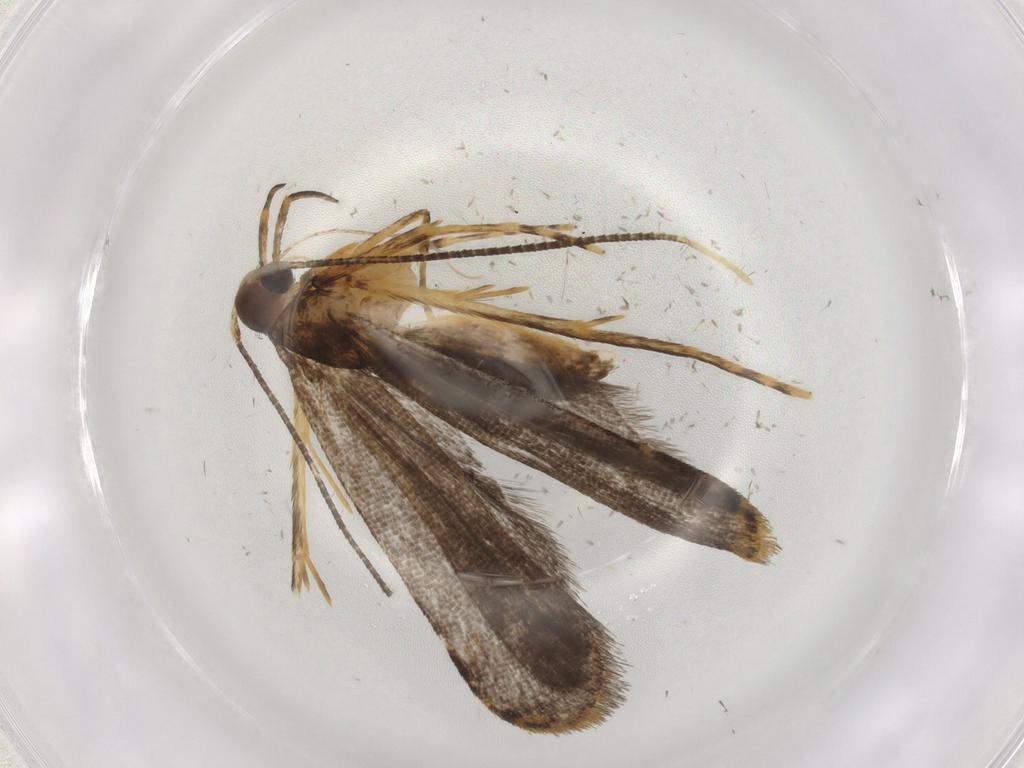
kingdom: Animalia
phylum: Arthropoda
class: Insecta
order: Lepidoptera
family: Cosmopterigidae
